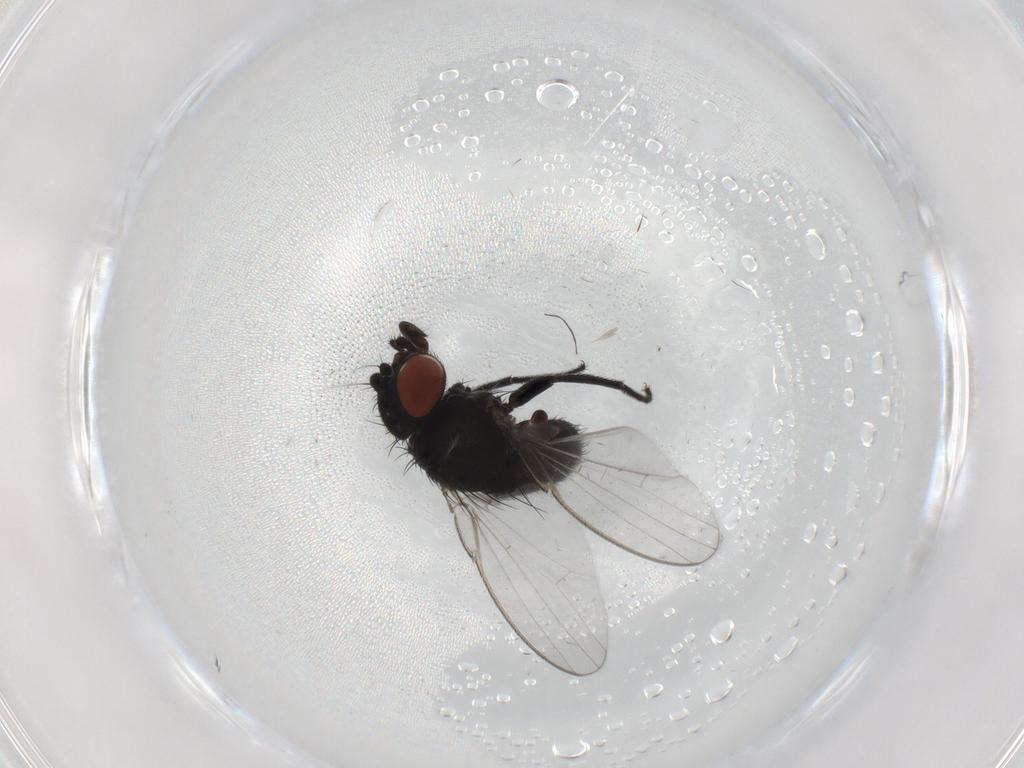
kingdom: Animalia
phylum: Arthropoda
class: Insecta
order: Diptera
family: Milichiidae
